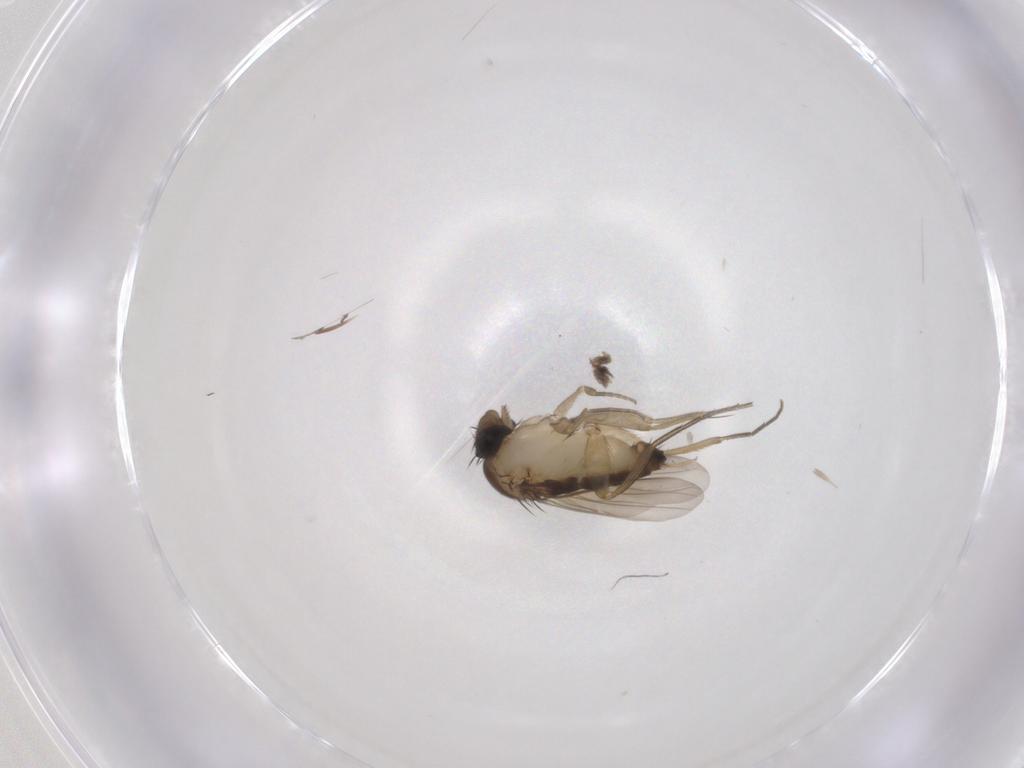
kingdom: Animalia
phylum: Arthropoda
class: Insecta
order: Diptera
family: Phoridae
